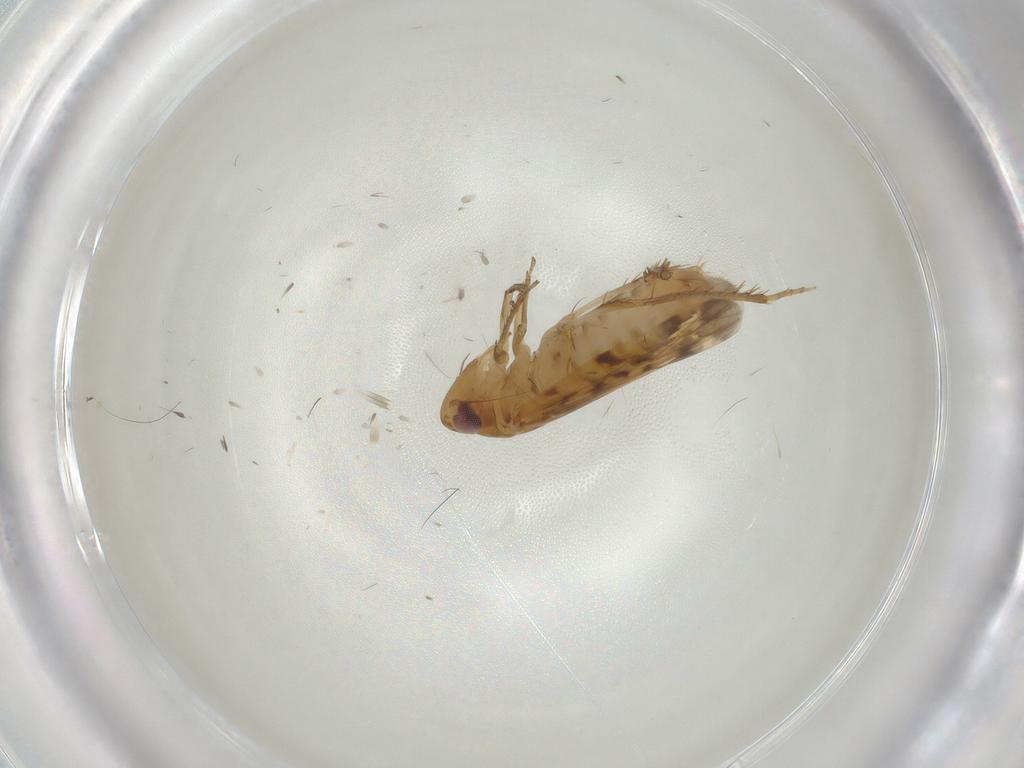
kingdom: Animalia
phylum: Arthropoda
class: Insecta
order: Hemiptera
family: Cicadellidae
